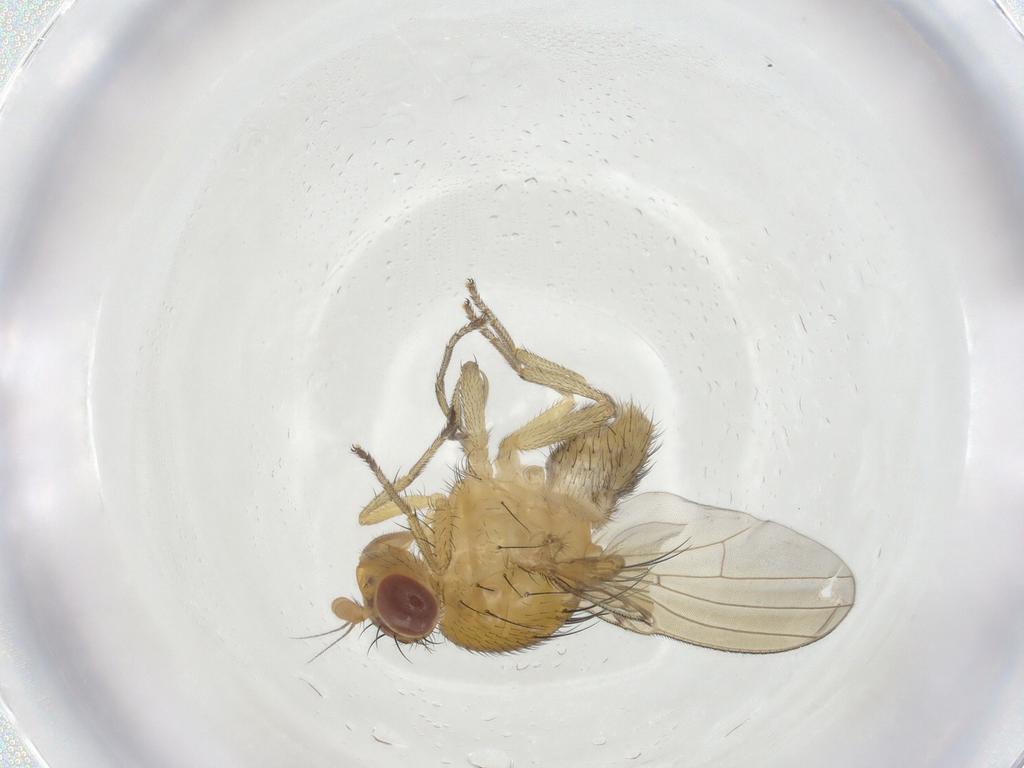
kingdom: Animalia
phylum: Arthropoda
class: Insecta
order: Diptera
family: Lauxaniidae
